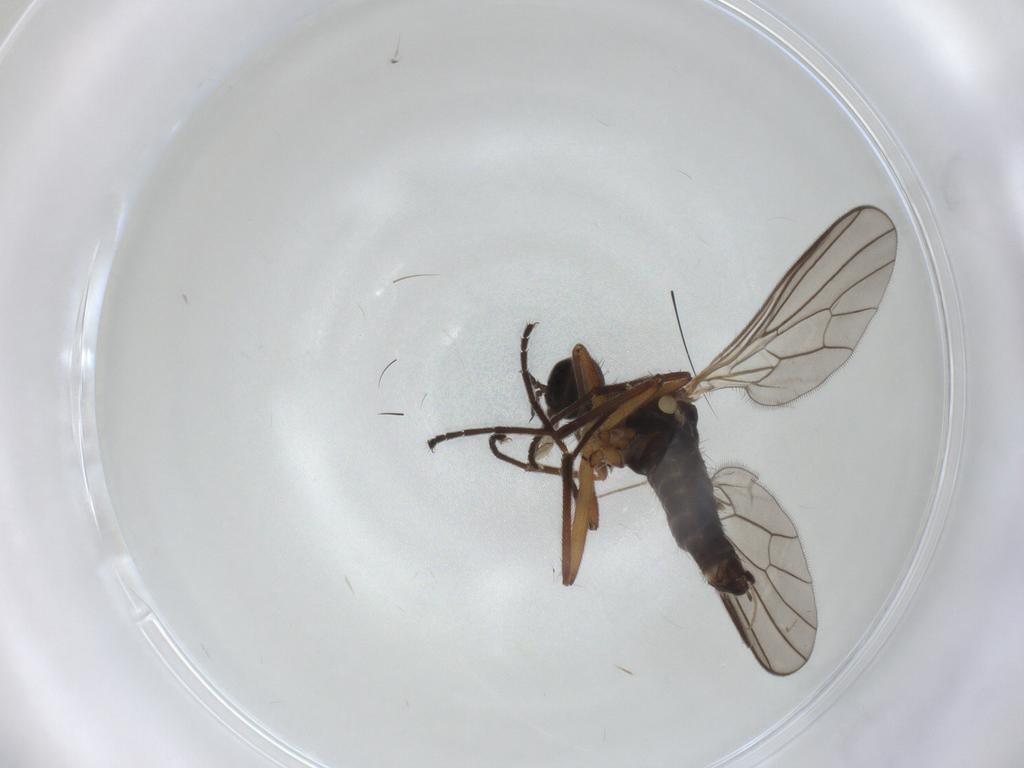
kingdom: Animalia
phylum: Arthropoda
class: Insecta
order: Diptera
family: Empididae
